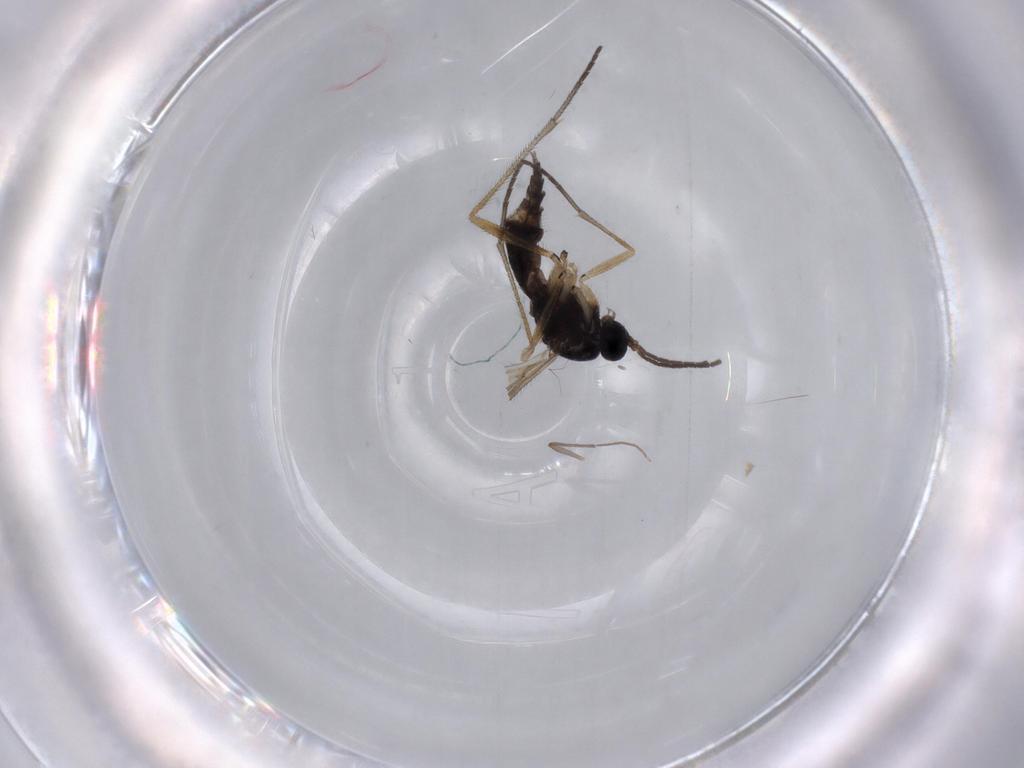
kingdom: Animalia
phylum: Arthropoda
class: Insecta
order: Diptera
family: Sciaridae
